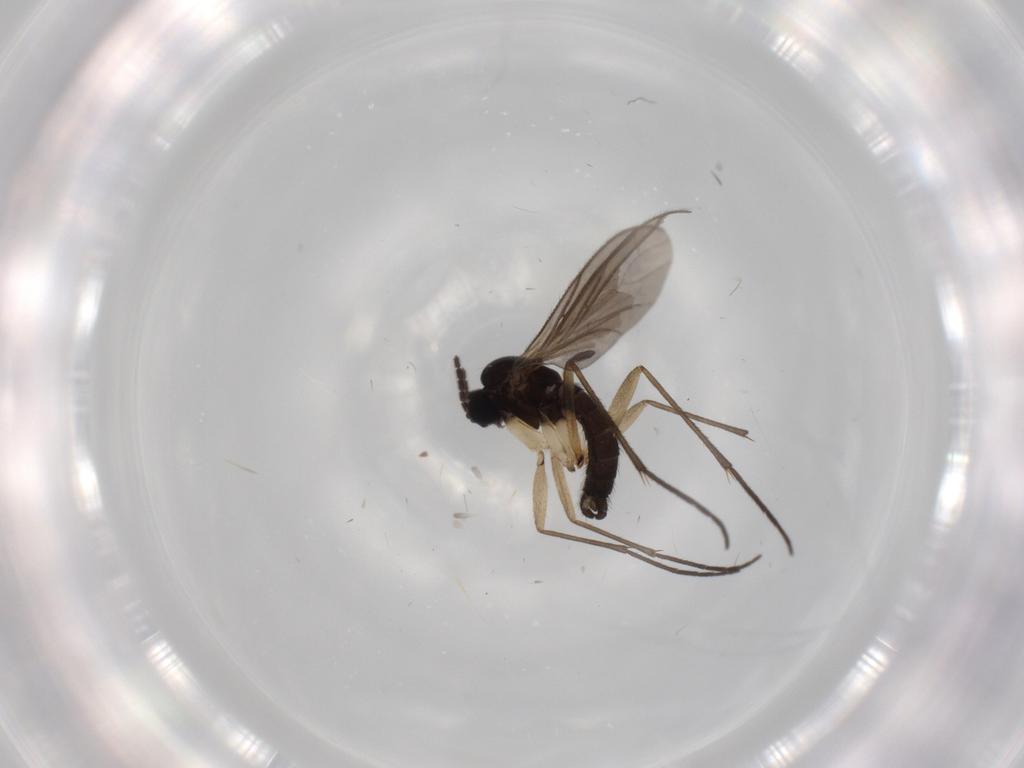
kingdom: Animalia
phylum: Arthropoda
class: Insecta
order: Diptera
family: Sciaridae
